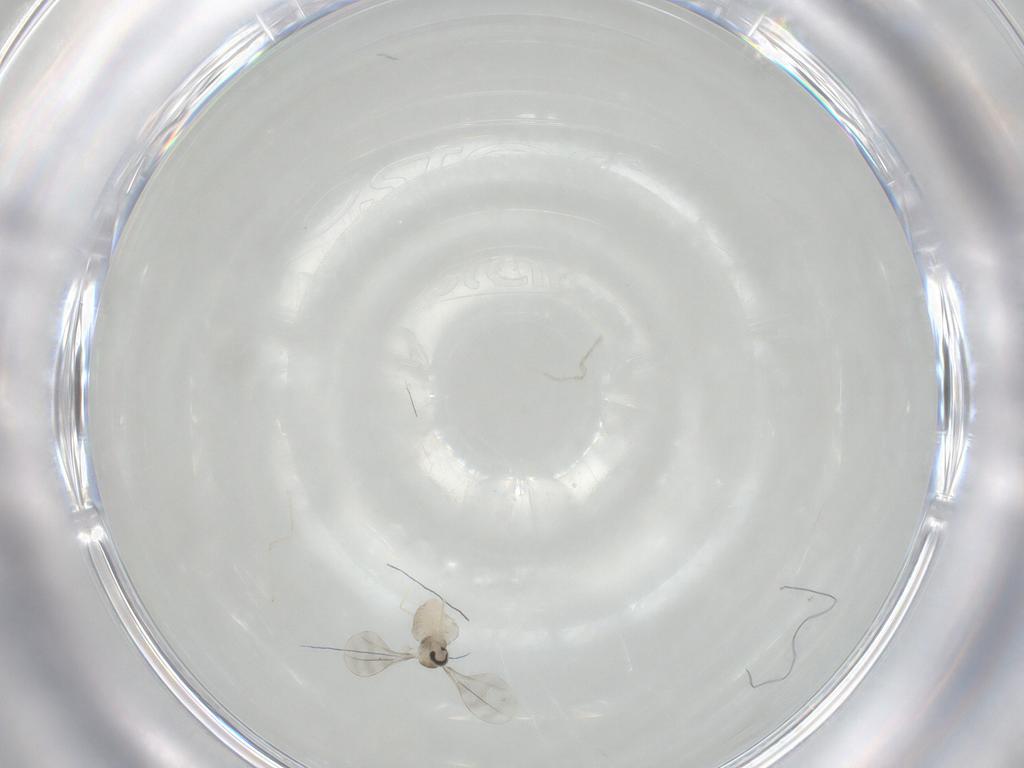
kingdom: Animalia
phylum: Arthropoda
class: Insecta
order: Diptera
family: Cecidomyiidae
